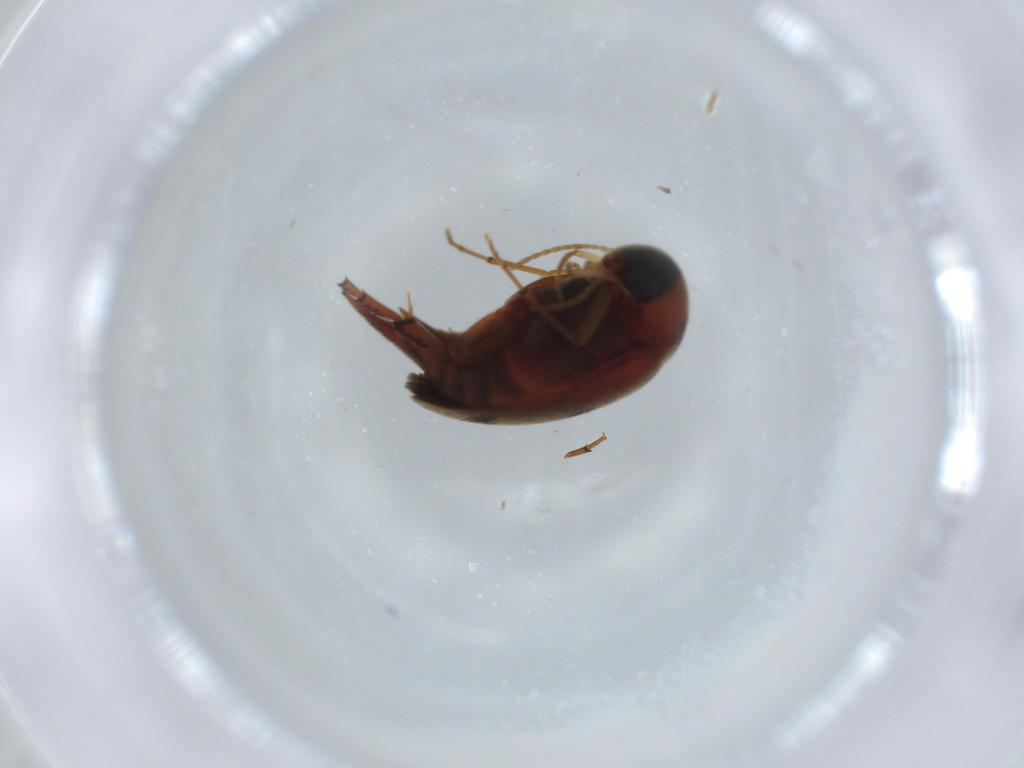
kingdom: Animalia
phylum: Arthropoda
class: Insecta
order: Coleoptera
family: Mordellidae
